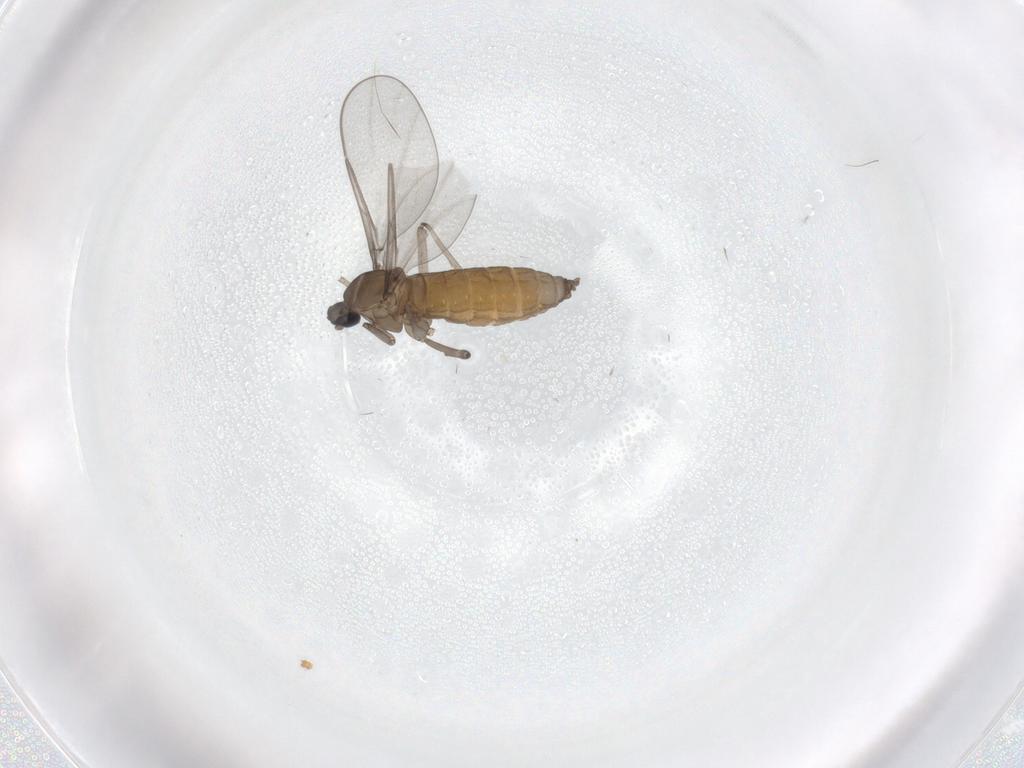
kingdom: Animalia
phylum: Arthropoda
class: Insecta
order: Diptera
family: Cecidomyiidae
